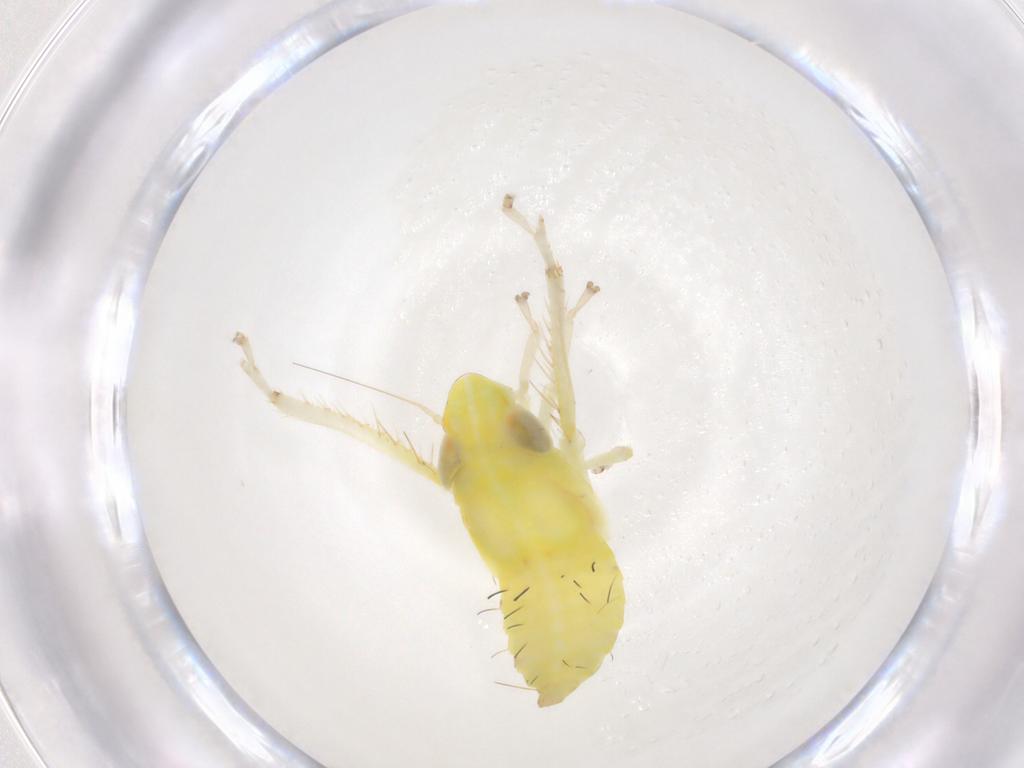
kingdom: Animalia
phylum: Arthropoda
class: Insecta
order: Hemiptera
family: Cicadellidae
